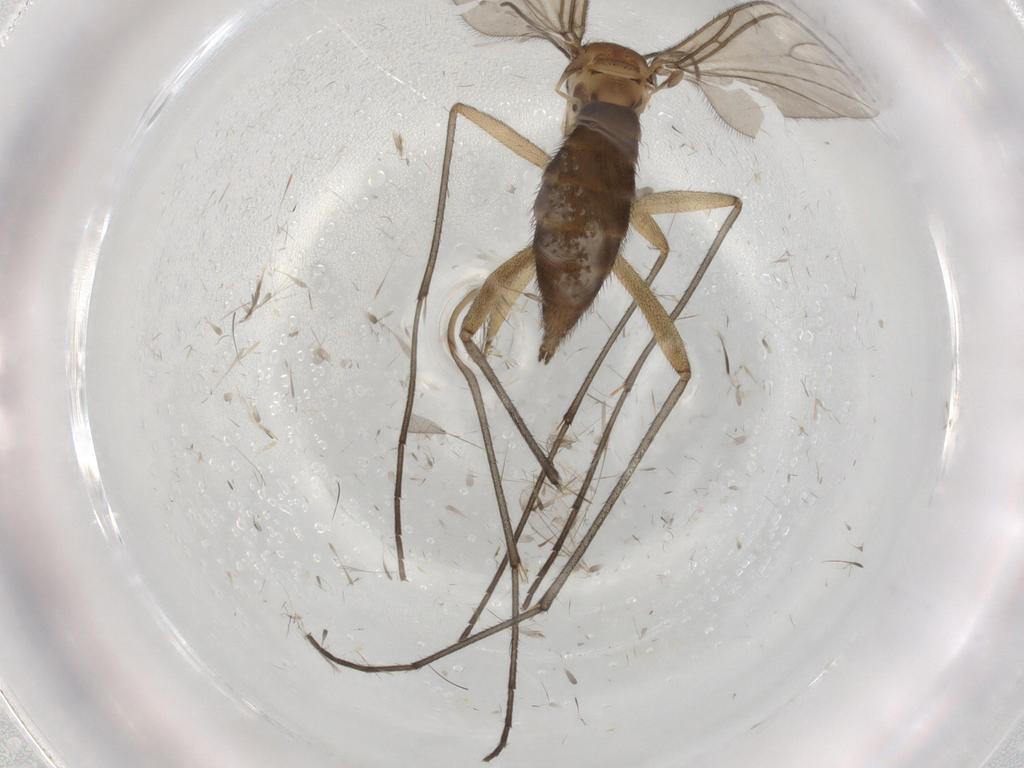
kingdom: Animalia
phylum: Arthropoda
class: Insecta
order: Diptera
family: Sciaridae
